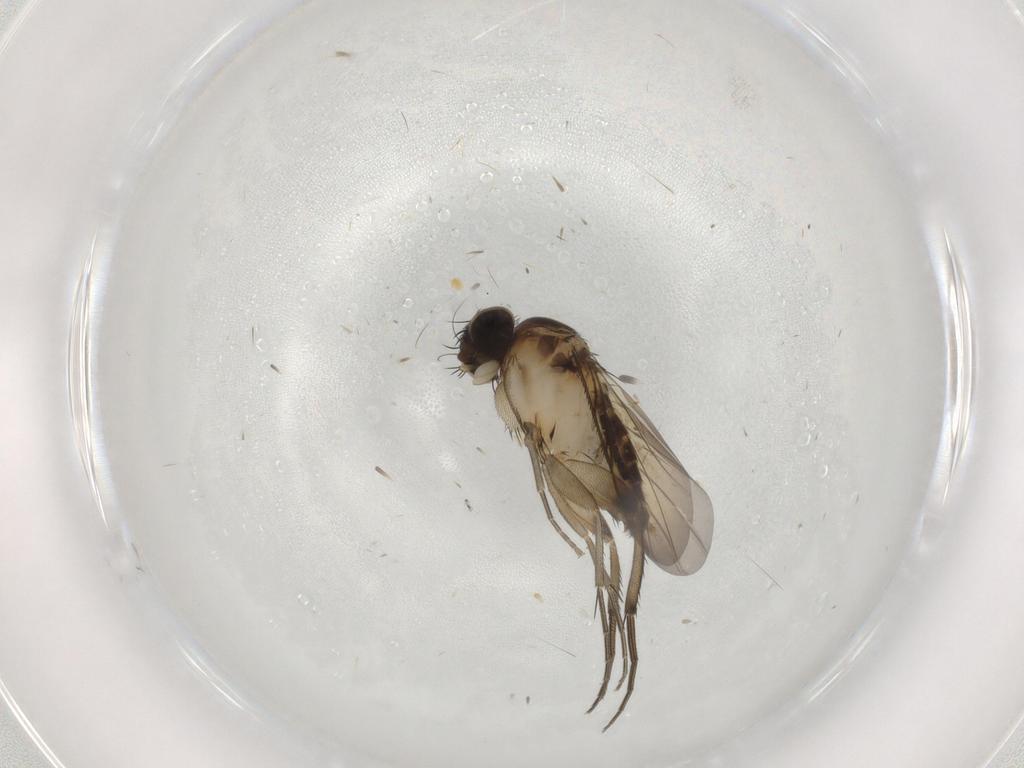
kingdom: Animalia
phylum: Arthropoda
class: Insecta
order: Diptera
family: Phoridae
